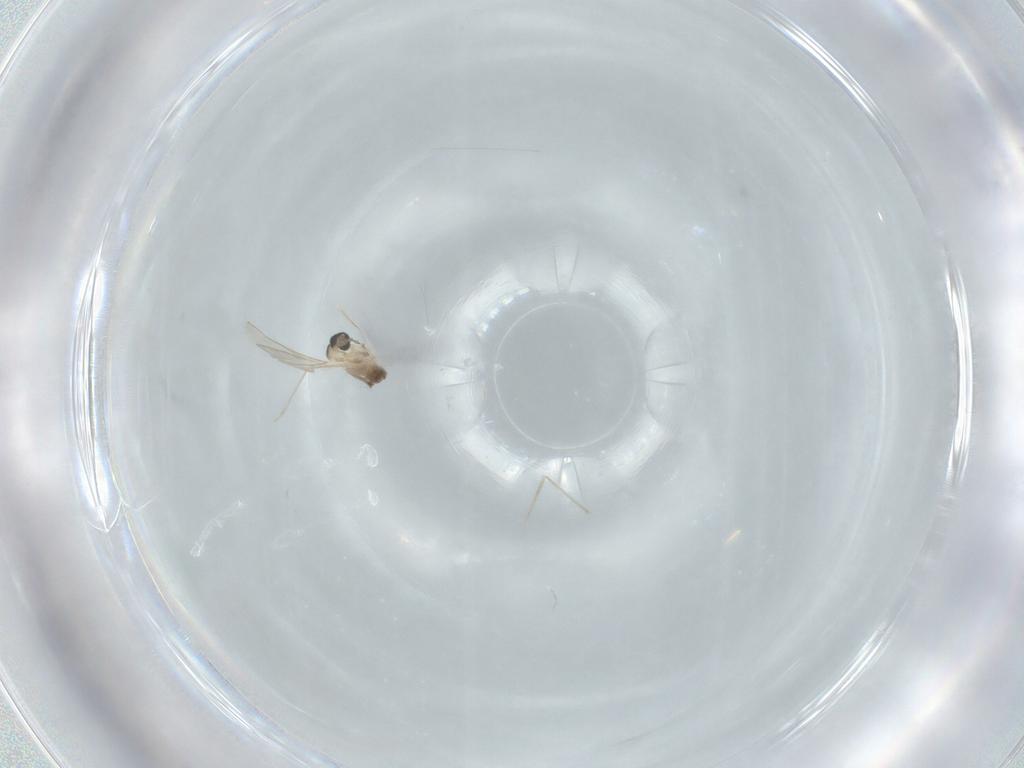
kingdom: Animalia
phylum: Arthropoda
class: Insecta
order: Diptera
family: Cecidomyiidae
